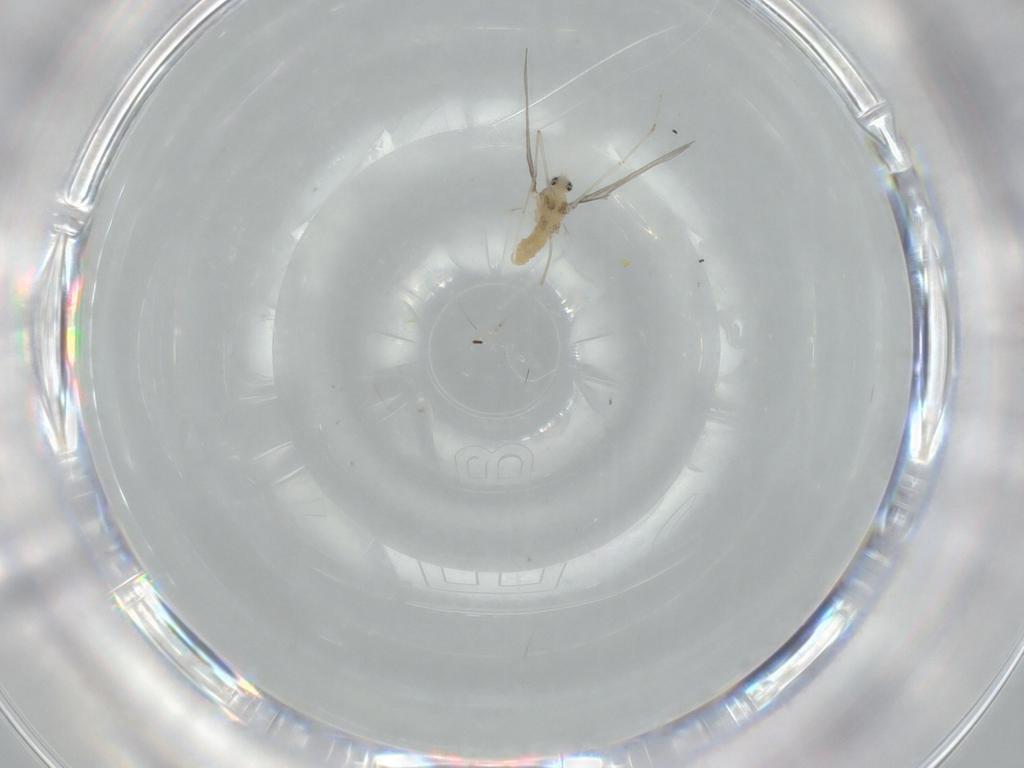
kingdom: Animalia
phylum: Arthropoda
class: Insecta
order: Diptera
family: Cecidomyiidae
